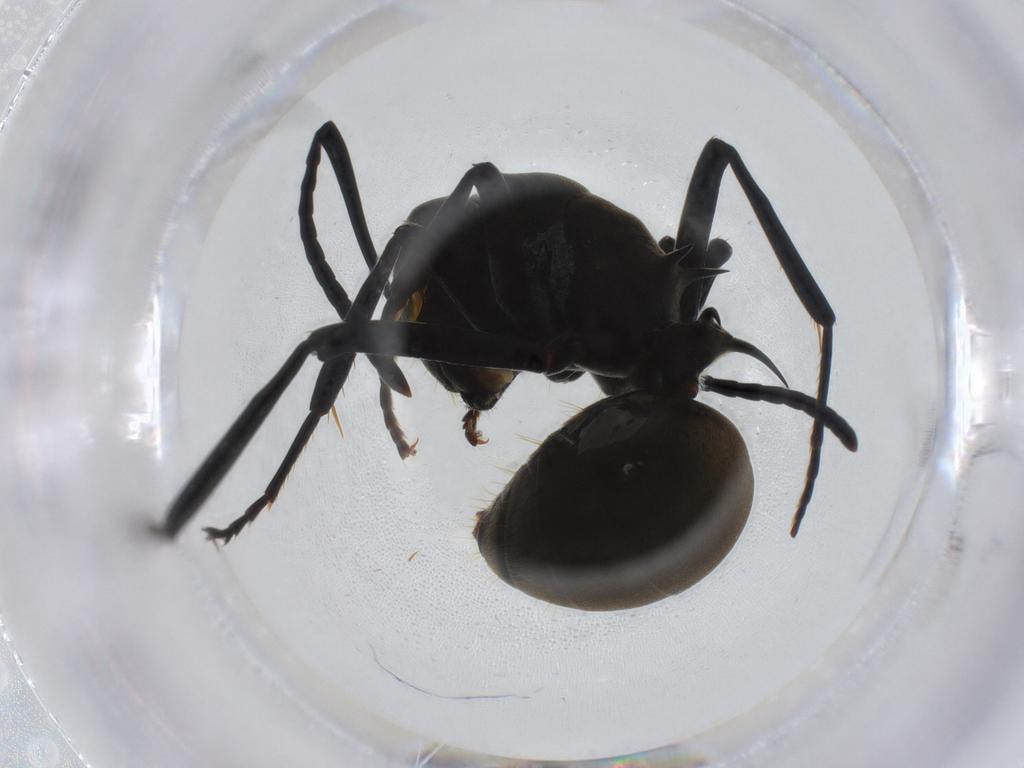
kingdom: Animalia
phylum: Arthropoda
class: Insecta
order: Hymenoptera
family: Formicidae
